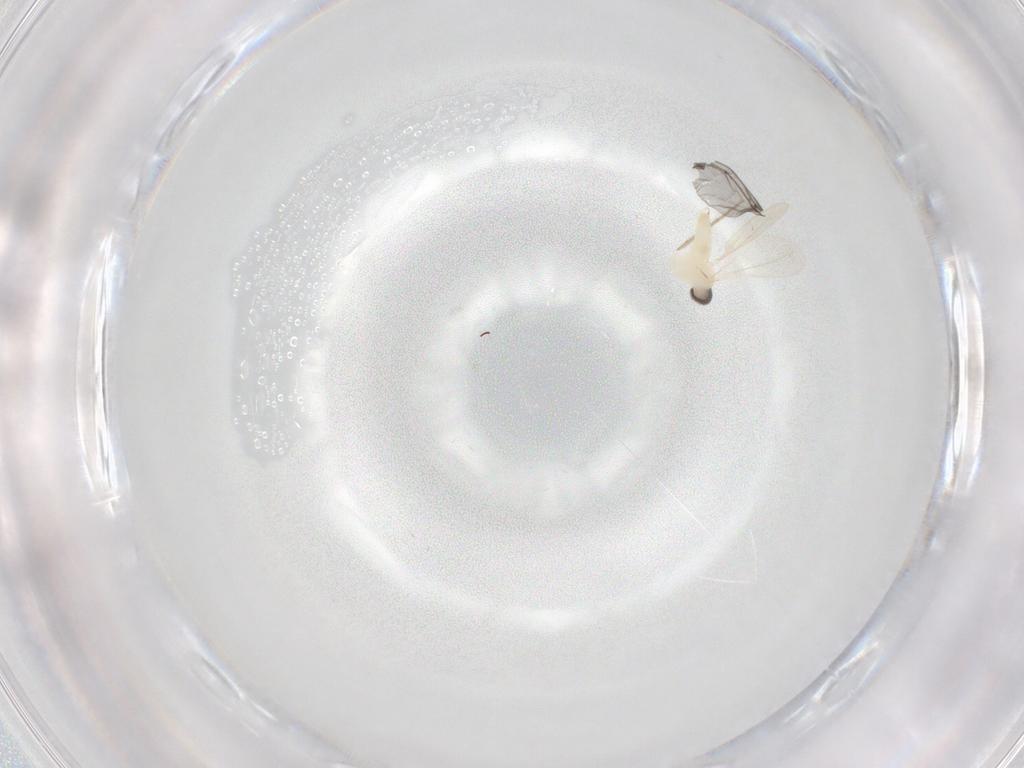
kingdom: Animalia
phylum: Arthropoda
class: Insecta
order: Diptera
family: Cecidomyiidae
